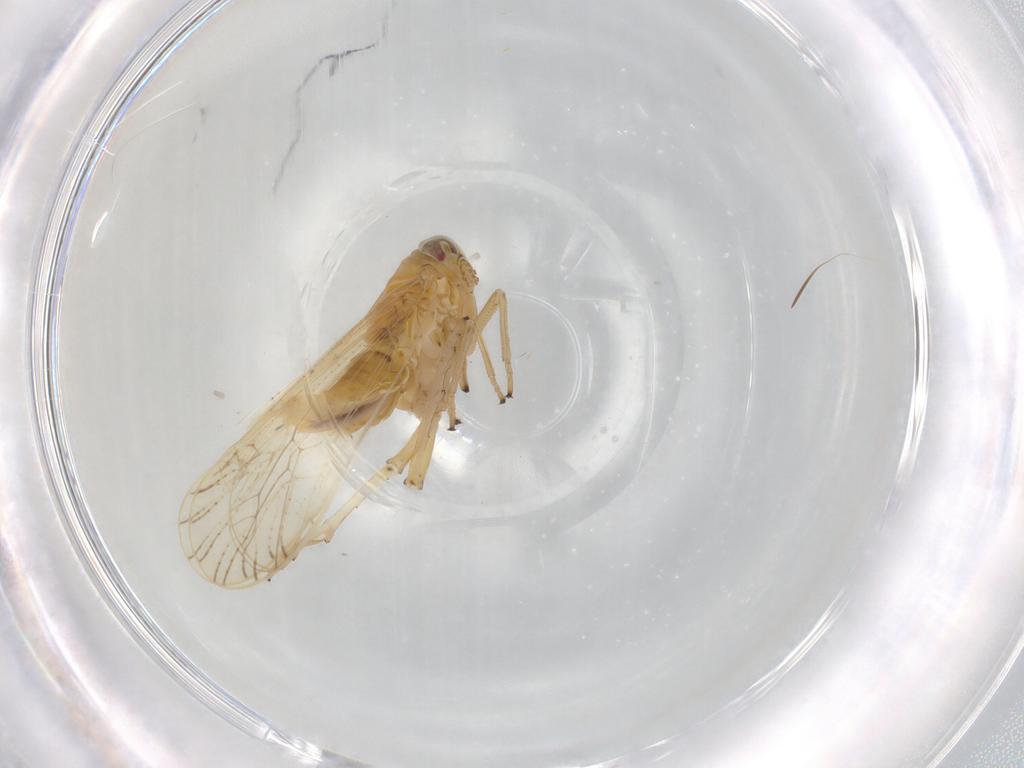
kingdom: Animalia
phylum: Arthropoda
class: Insecta
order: Hemiptera
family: Delphacidae
